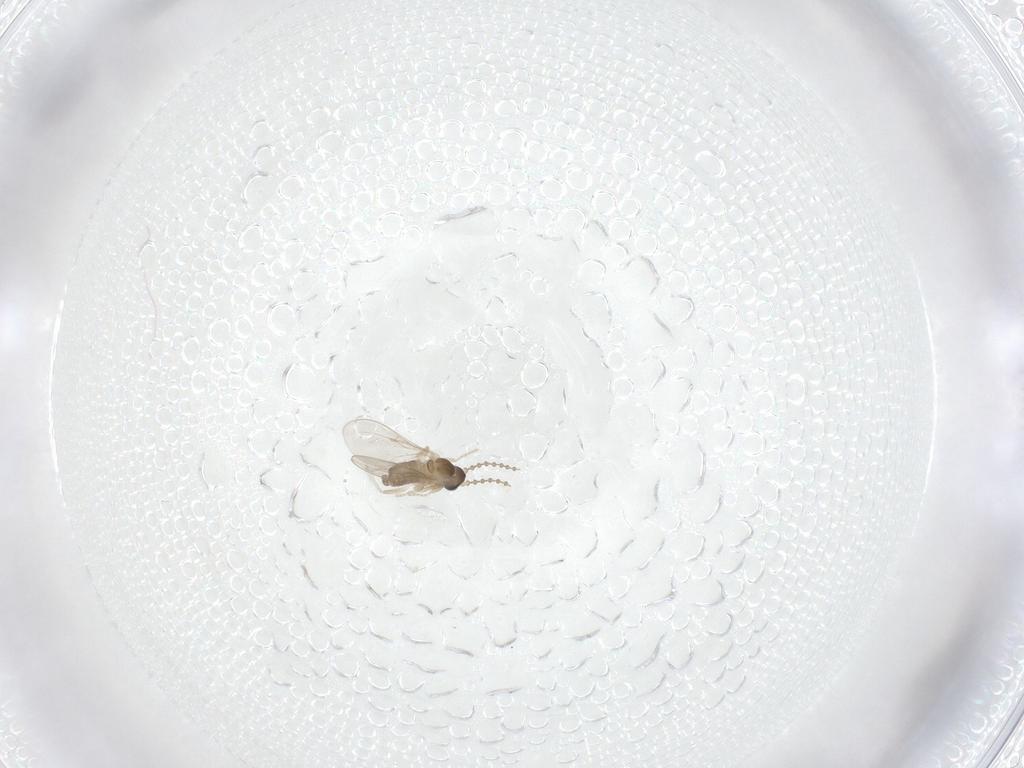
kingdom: Animalia
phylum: Arthropoda
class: Insecta
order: Diptera
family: Cecidomyiidae
